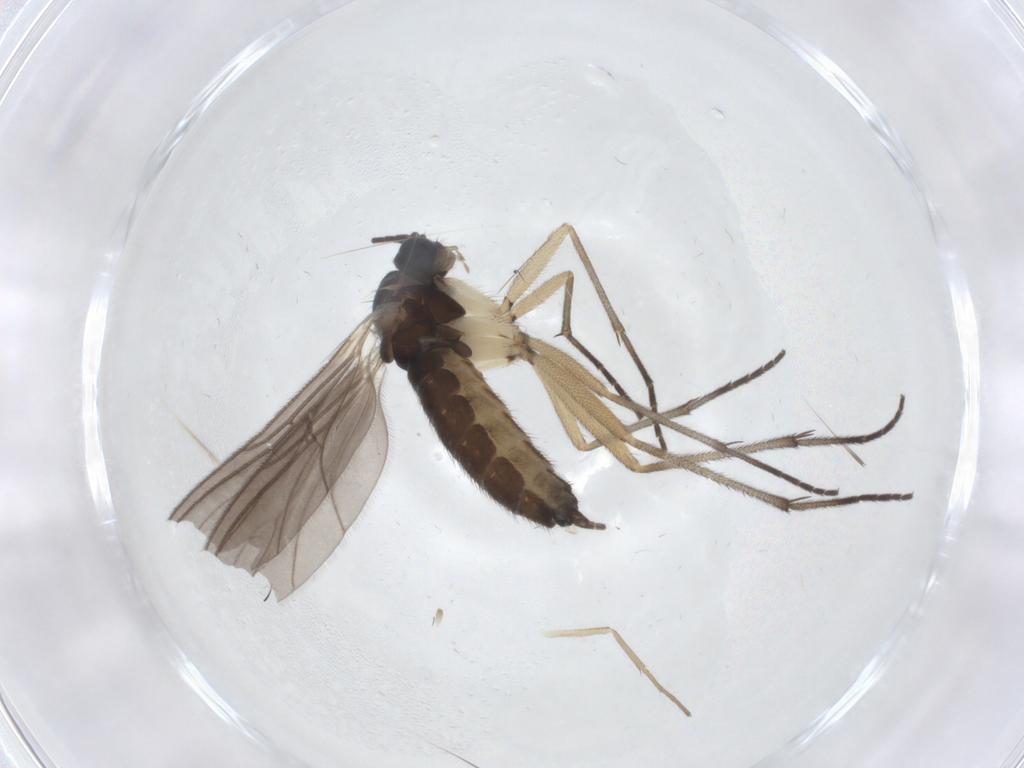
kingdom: Animalia
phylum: Arthropoda
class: Insecta
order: Diptera
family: Sciaridae
